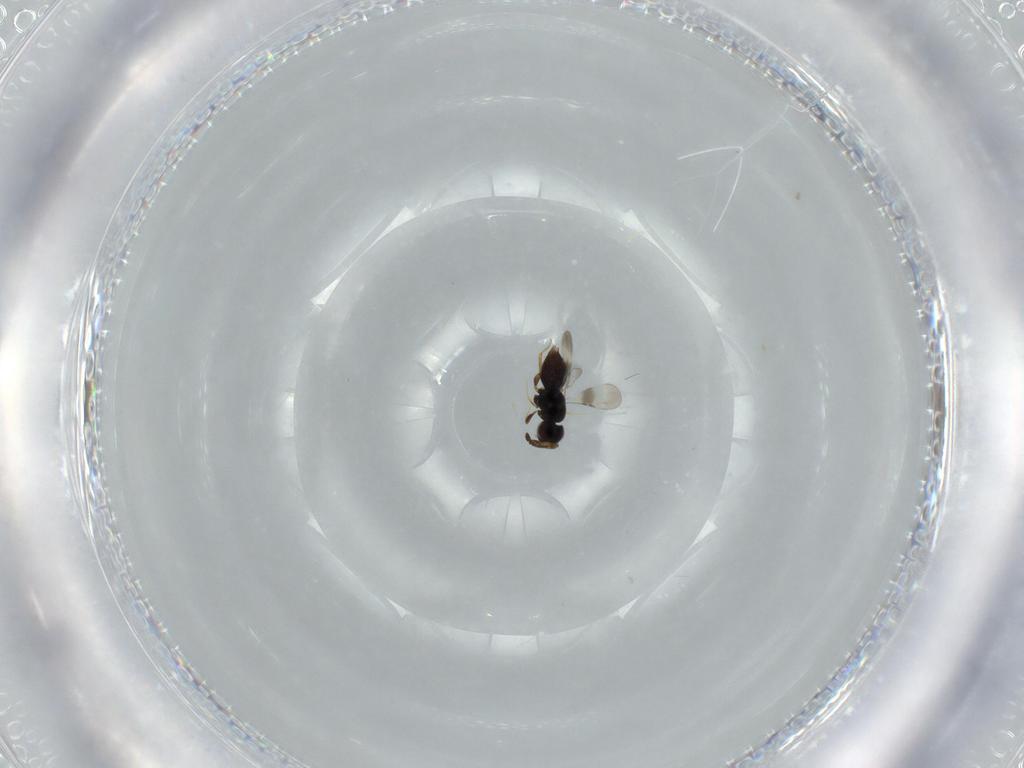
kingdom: Animalia
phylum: Arthropoda
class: Insecta
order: Hymenoptera
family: Ceraphronidae
